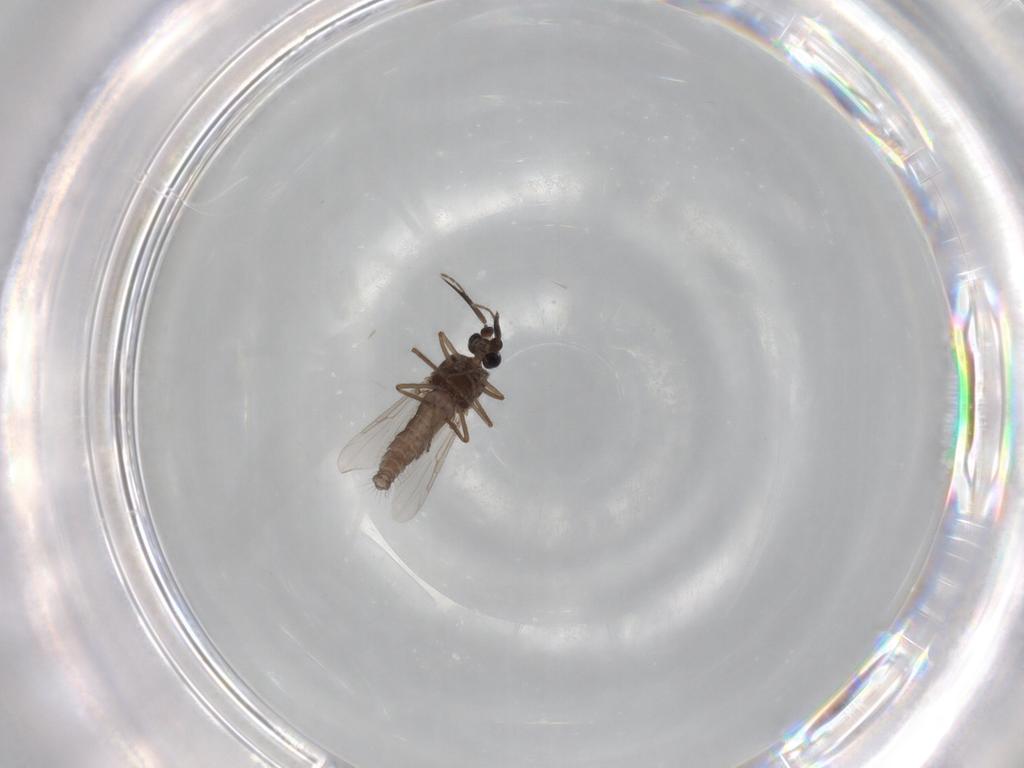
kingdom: Animalia
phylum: Arthropoda
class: Insecta
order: Diptera
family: Ceratopogonidae
